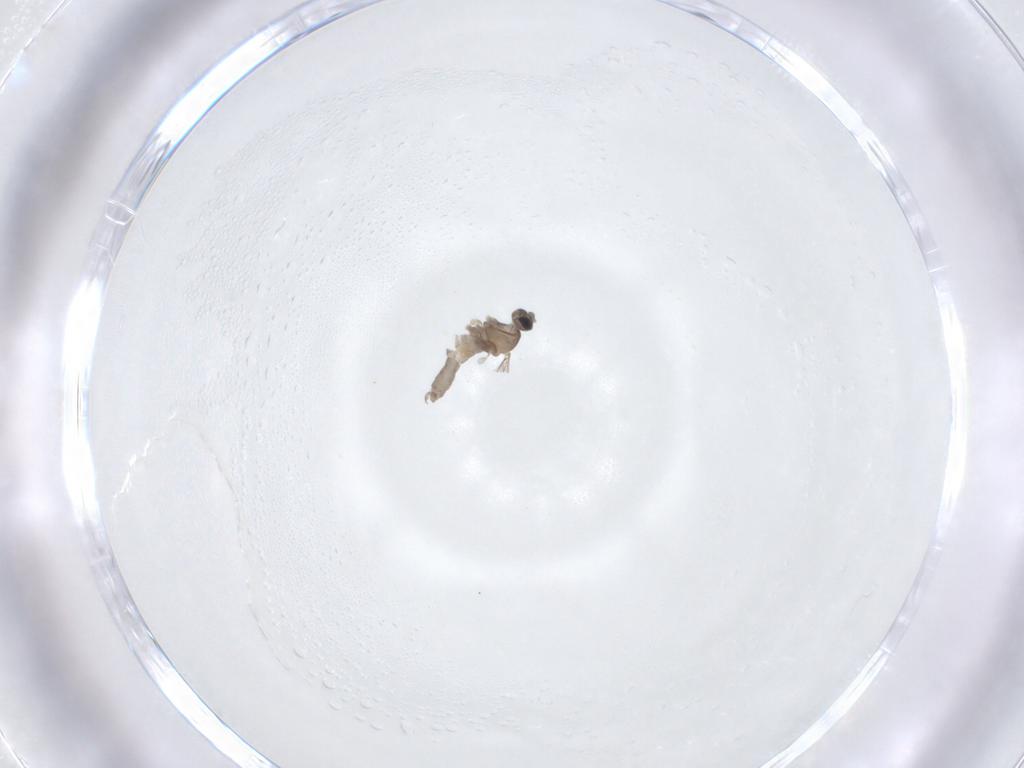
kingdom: Animalia
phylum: Arthropoda
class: Insecta
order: Diptera
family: Cecidomyiidae
